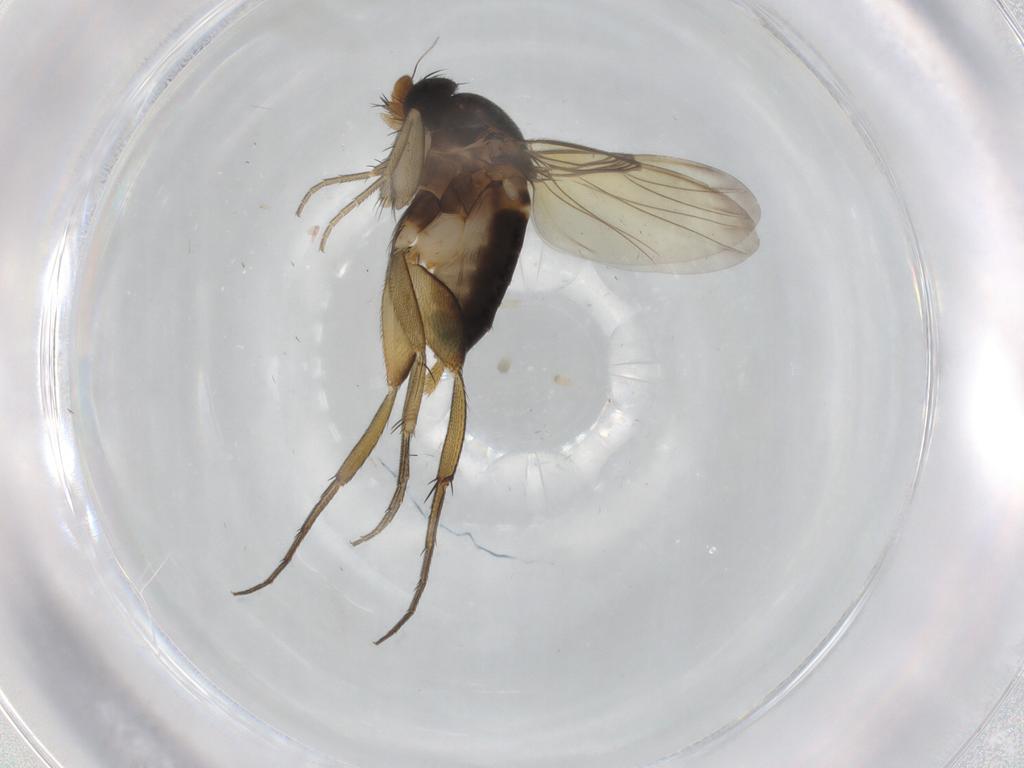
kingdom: Animalia
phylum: Arthropoda
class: Insecta
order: Diptera
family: Phoridae
